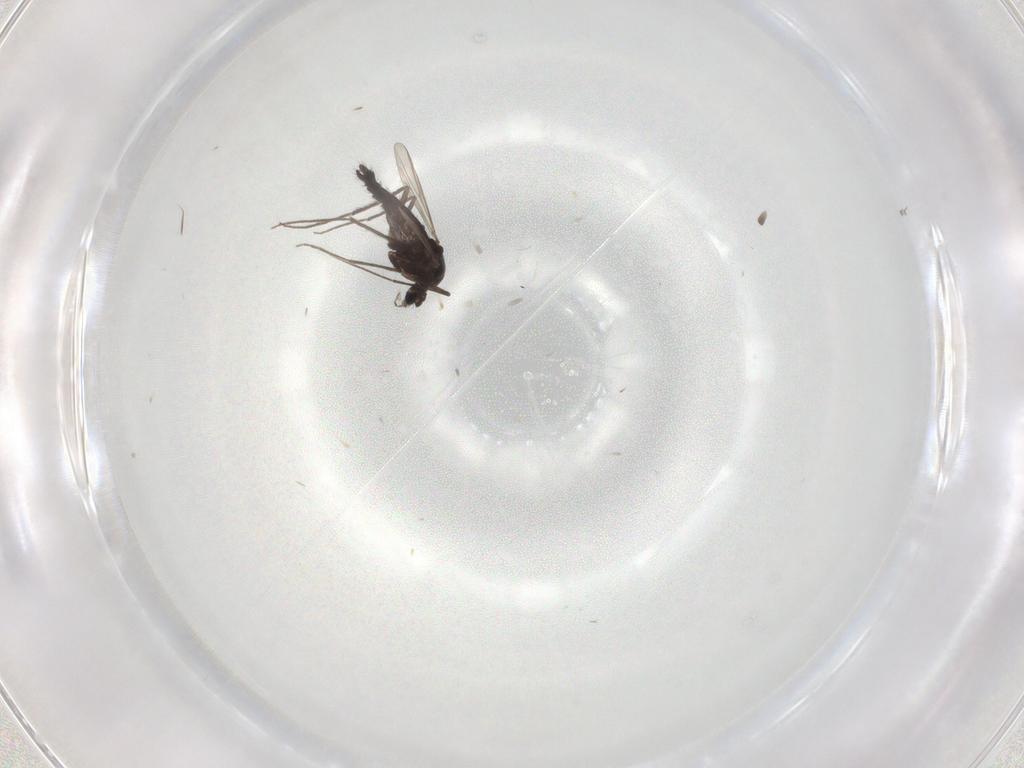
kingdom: Animalia
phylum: Arthropoda
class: Insecta
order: Diptera
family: Chironomidae
